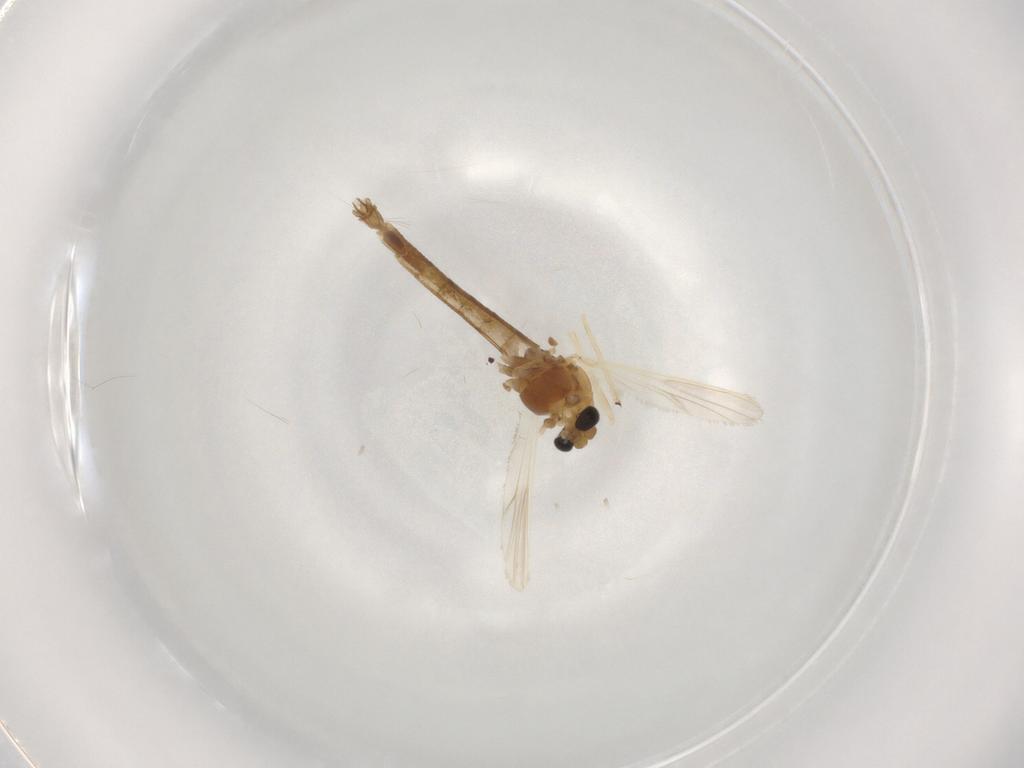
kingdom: Animalia
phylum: Arthropoda
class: Insecta
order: Diptera
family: Chironomidae
